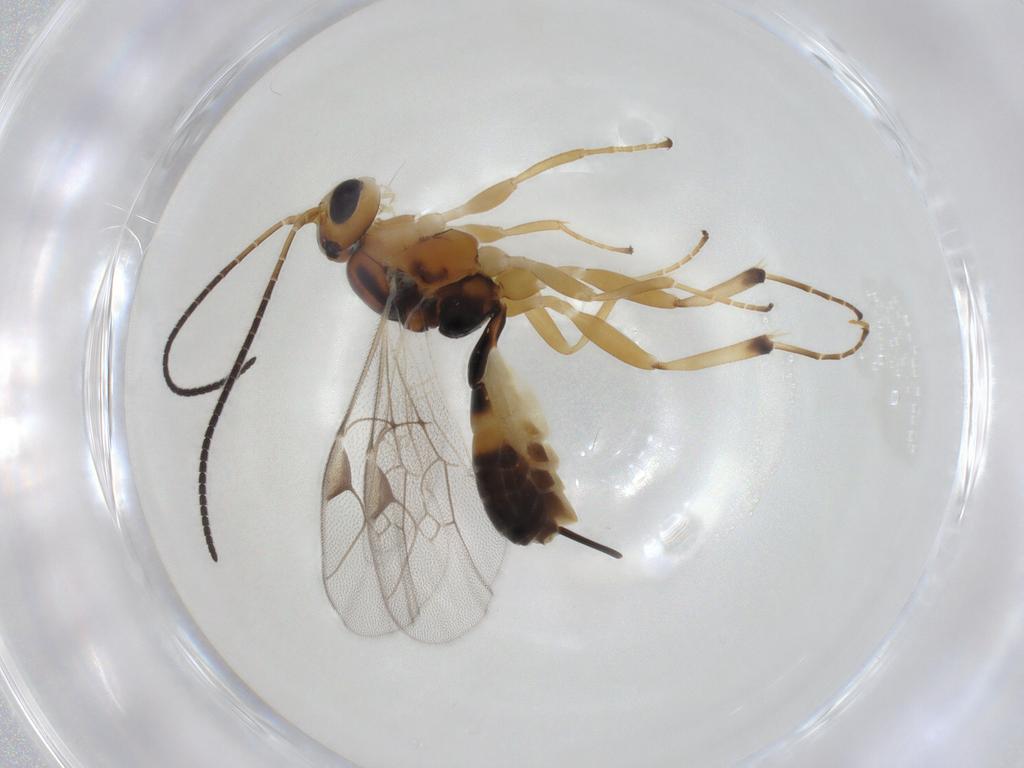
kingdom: Animalia
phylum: Arthropoda
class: Insecta
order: Hymenoptera
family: Ichneumonidae
